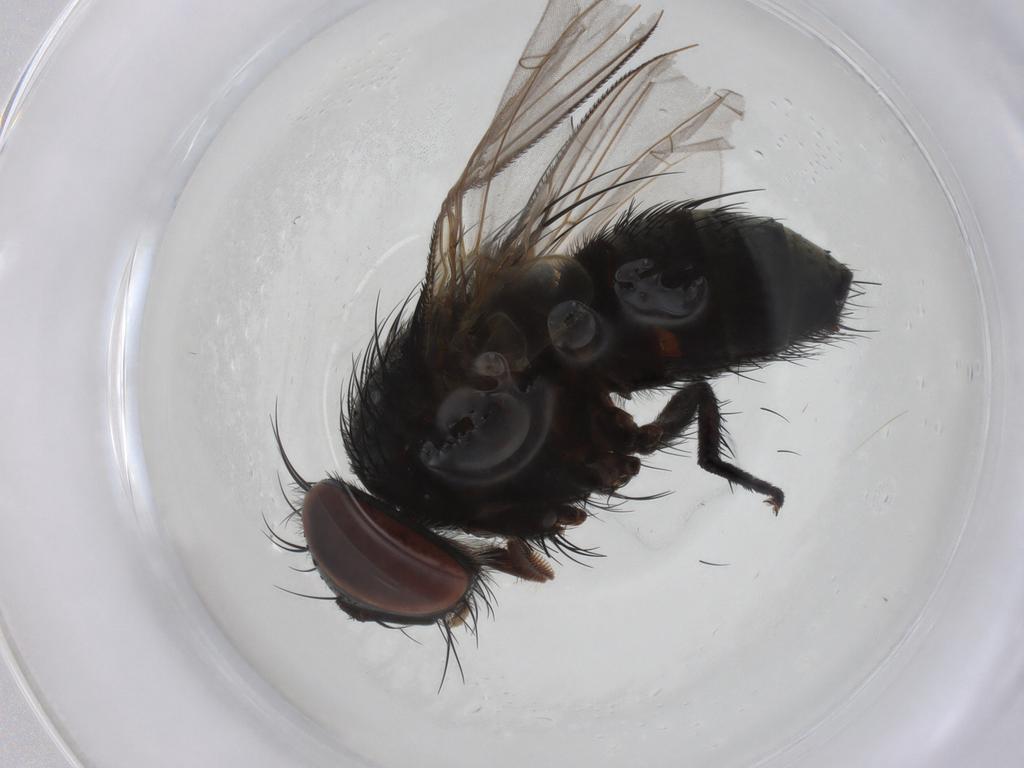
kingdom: Animalia
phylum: Arthropoda
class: Insecta
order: Diptera
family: Tachinidae
